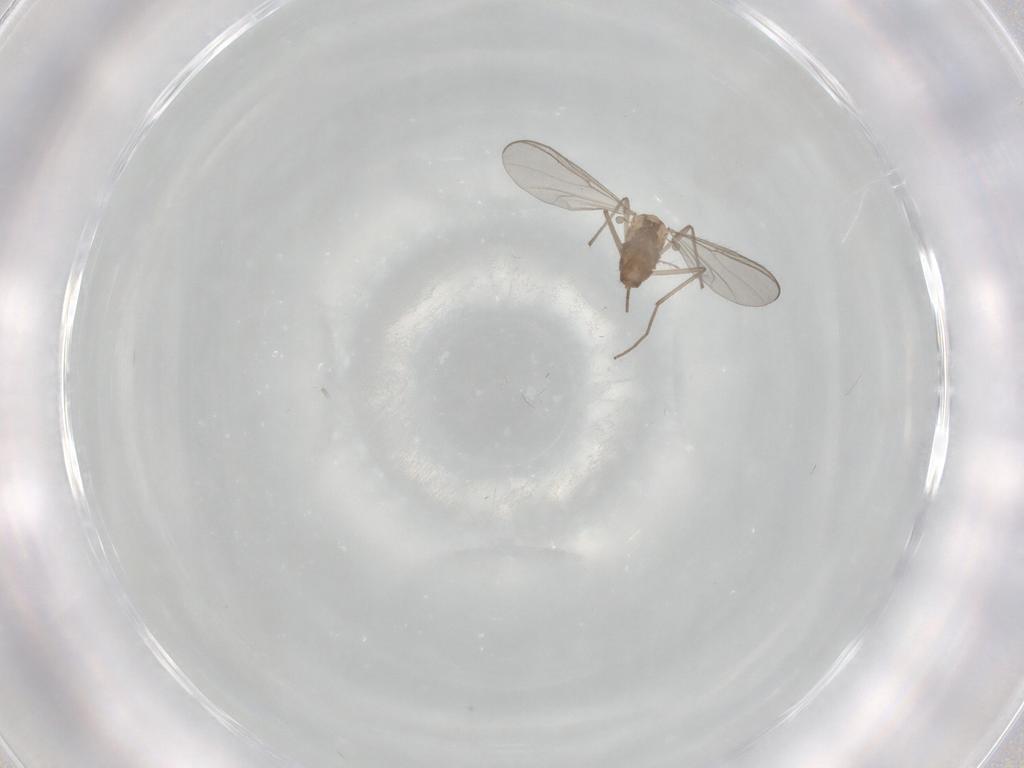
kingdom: Animalia
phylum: Arthropoda
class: Insecta
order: Diptera
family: Chironomidae
